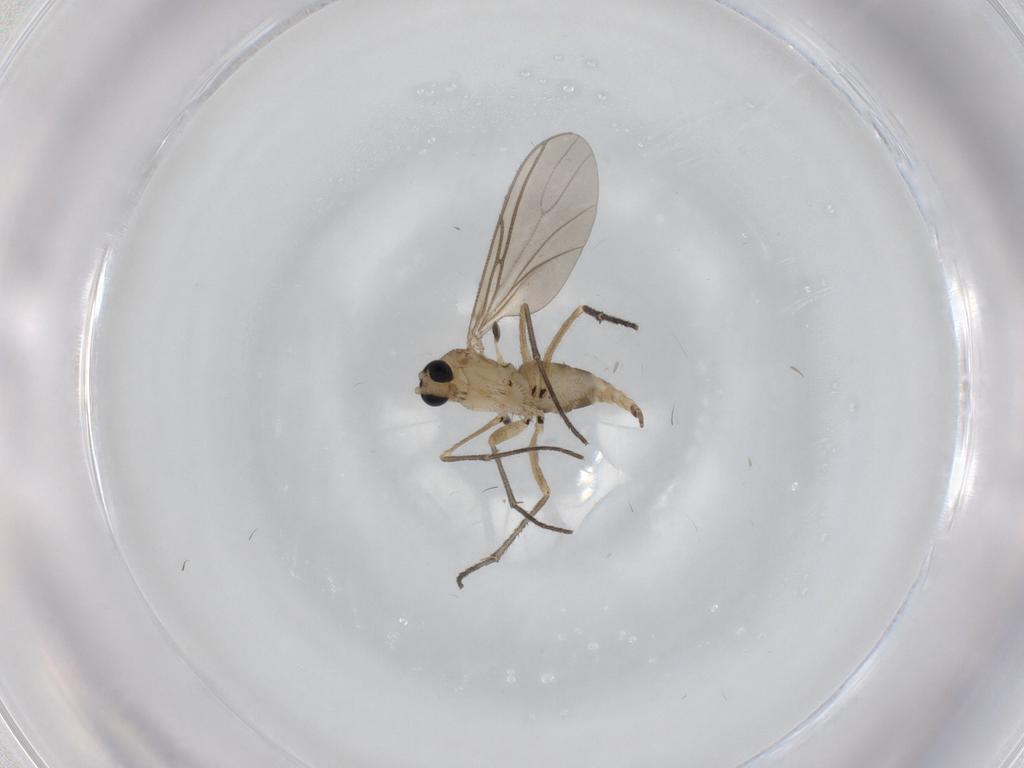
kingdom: Animalia
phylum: Arthropoda
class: Insecta
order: Diptera
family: Sciaridae
